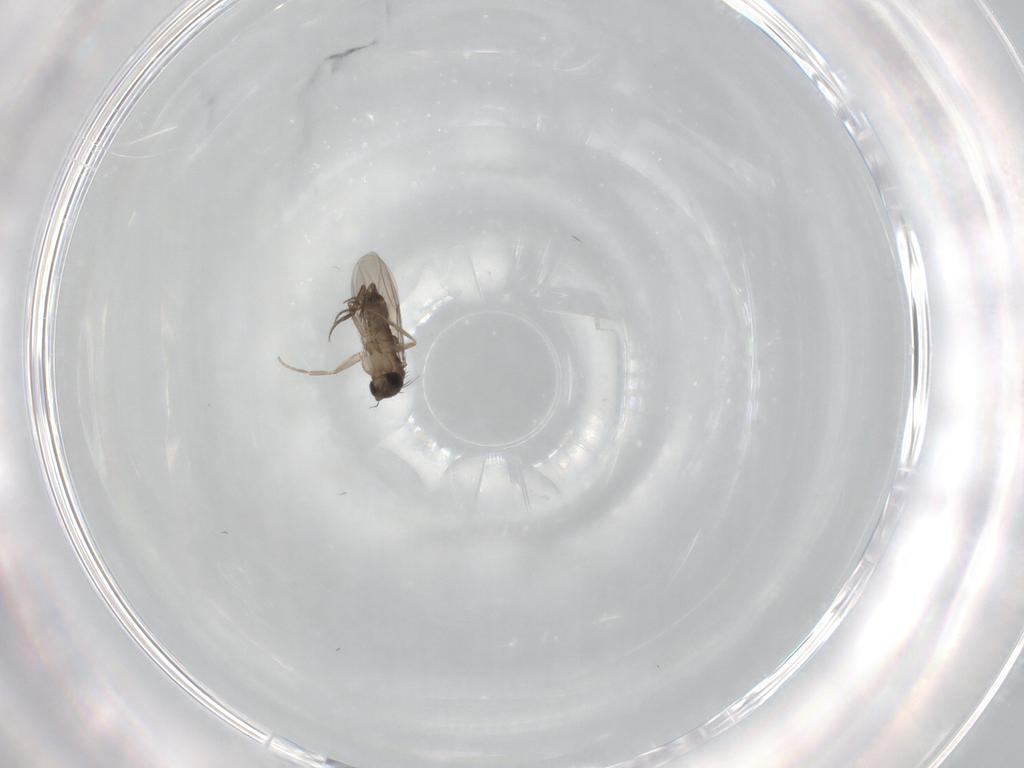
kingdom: Animalia
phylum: Arthropoda
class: Insecta
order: Diptera
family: Phoridae
